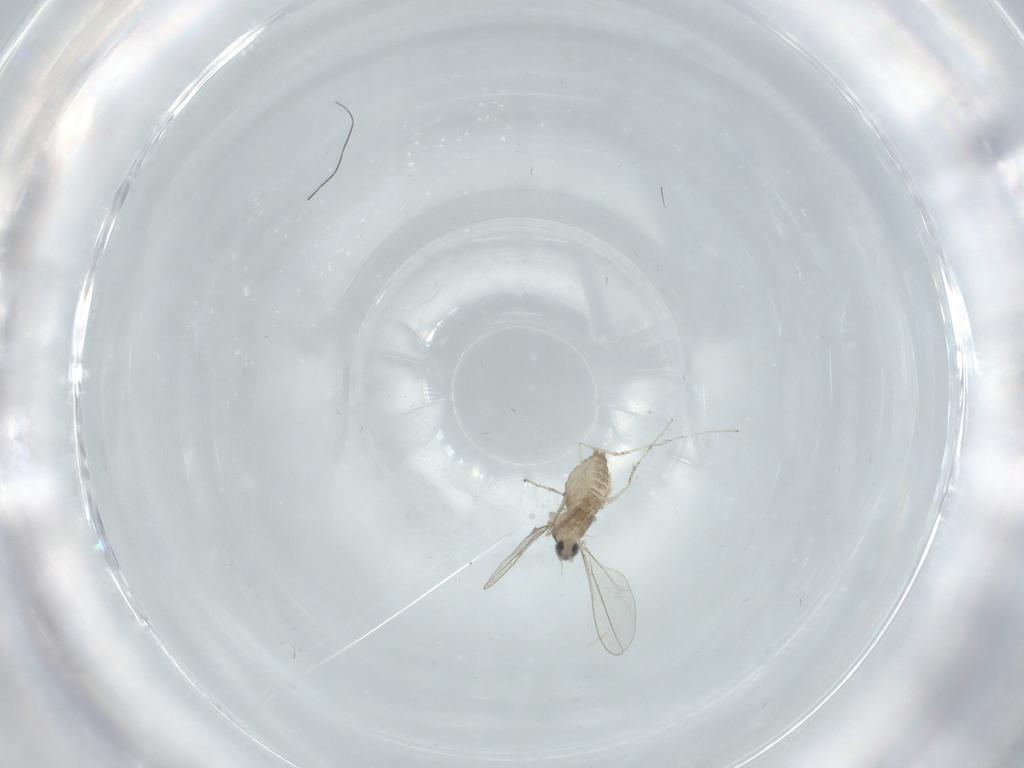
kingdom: Animalia
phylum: Arthropoda
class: Insecta
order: Diptera
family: Cecidomyiidae
